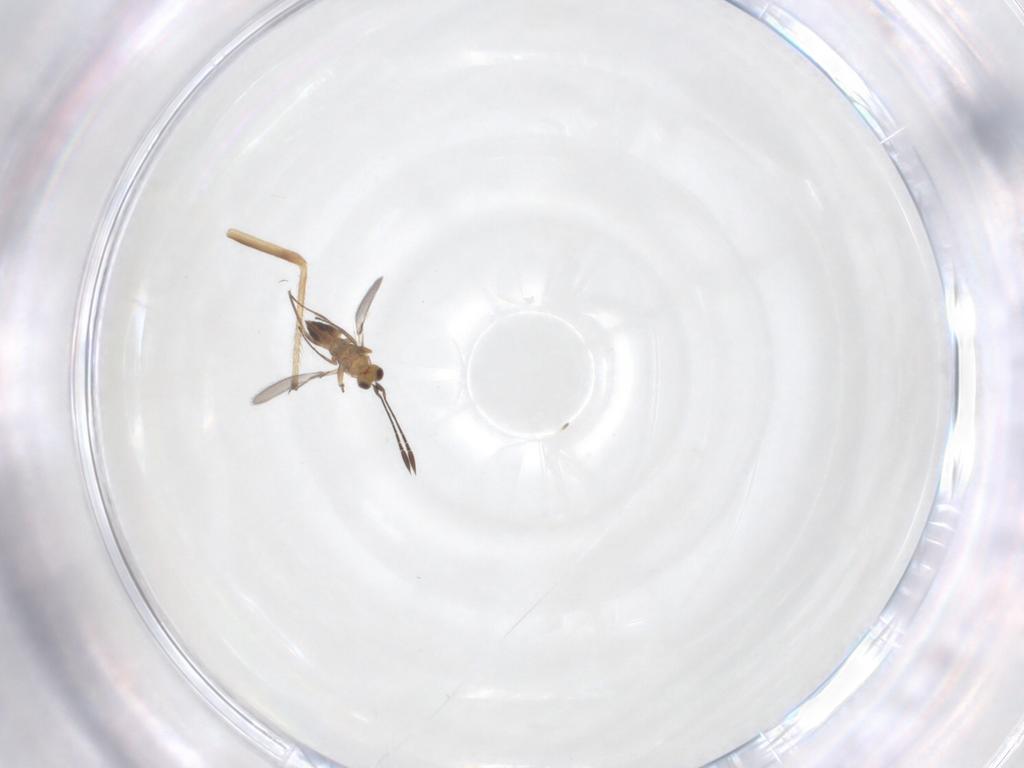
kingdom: Animalia
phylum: Arthropoda
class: Insecta
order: Hymenoptera
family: Mymaridae
